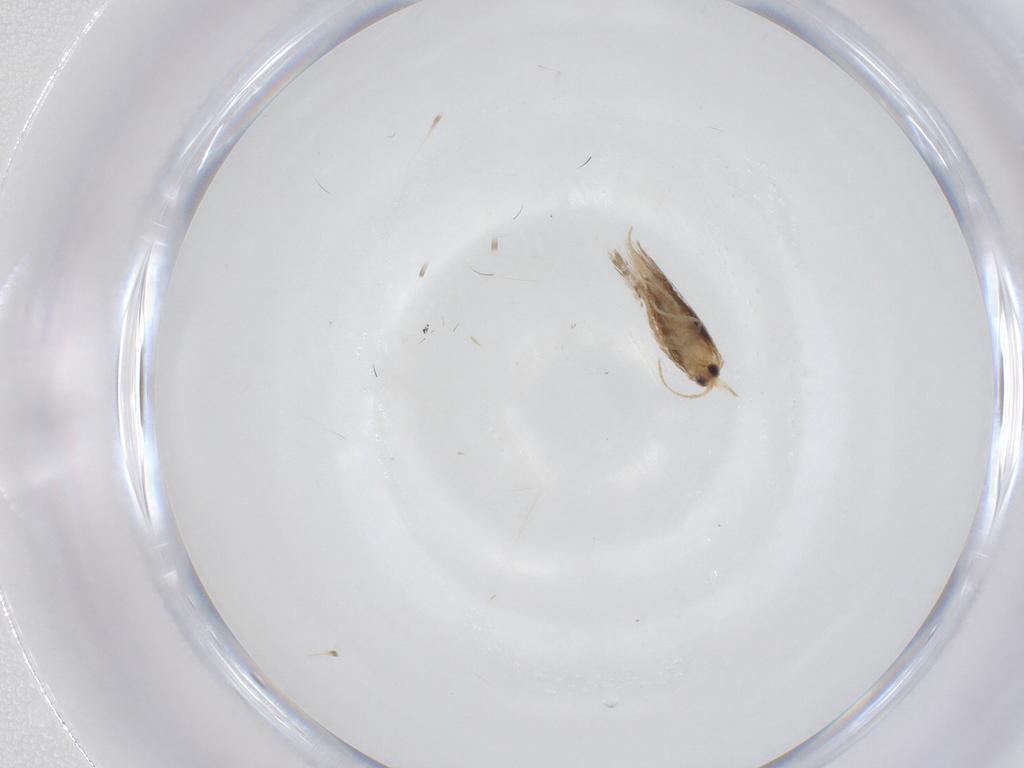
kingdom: Animalia
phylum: Arthropoda
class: Insecta
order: Lepidoptera
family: Nepticulidae
